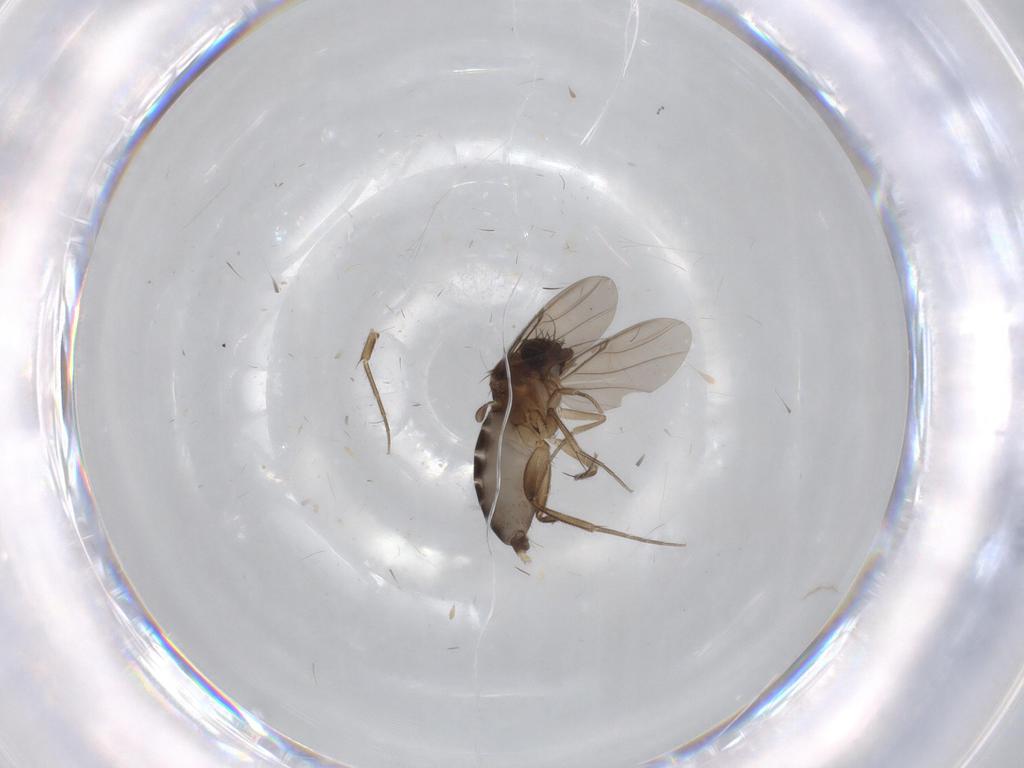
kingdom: Animalia
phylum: Arthropoda
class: Insecta
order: Diptera
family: Phoridae
